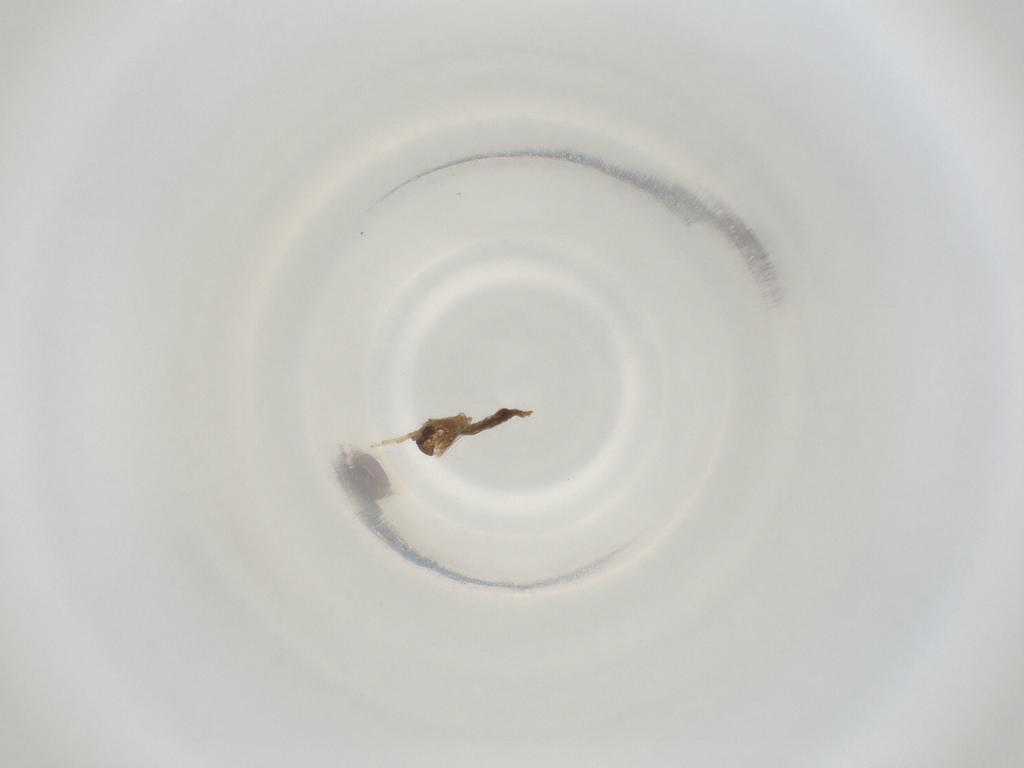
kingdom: Animalia
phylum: Arthropoda
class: Insecta
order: Diptera
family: Cecidomyiidae
